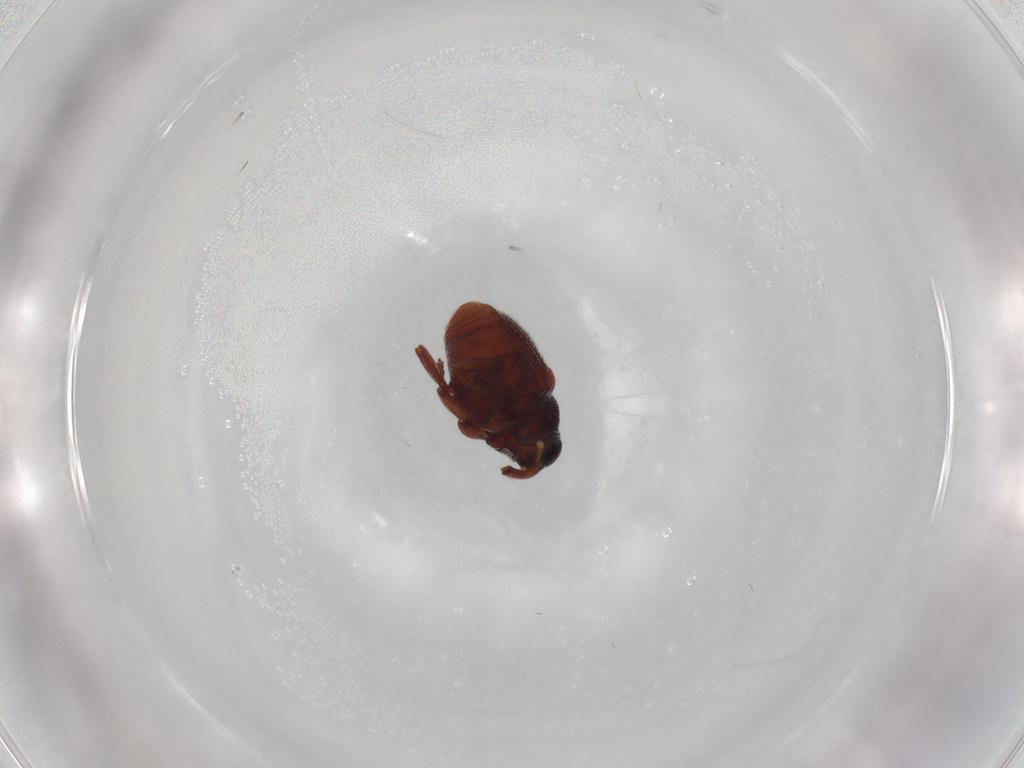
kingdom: Animalia
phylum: Arthropoda
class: Insecta
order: Coleoptera
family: Curculionidae
